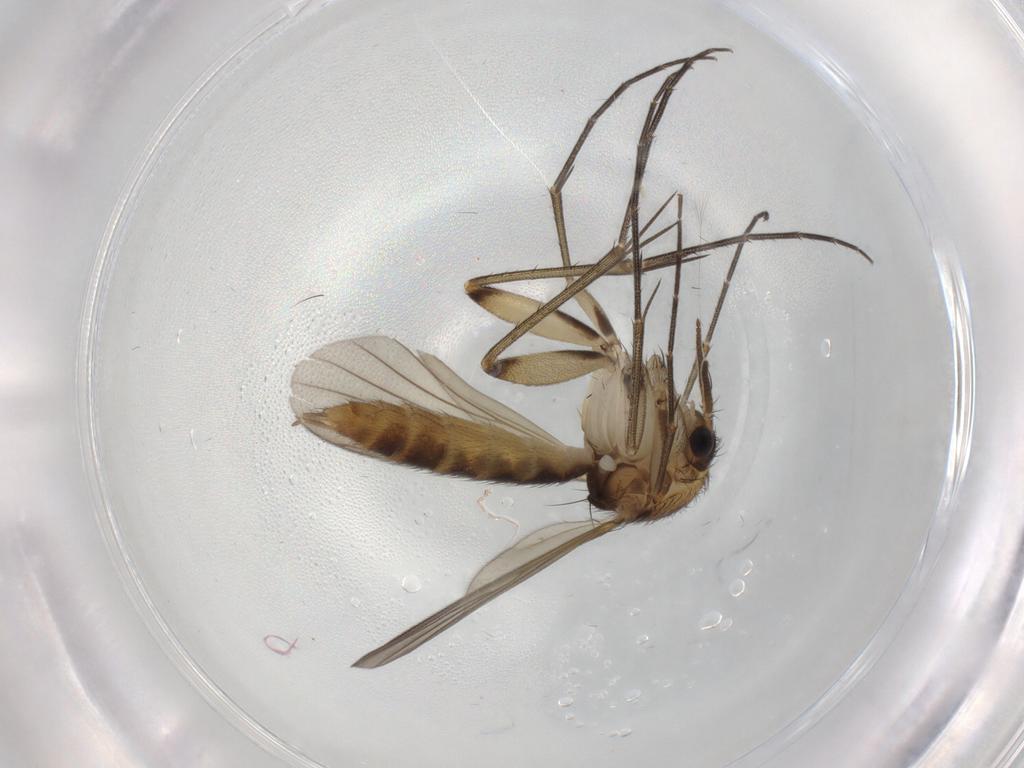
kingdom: Animalia
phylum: Arthropoda
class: Insecta
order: Diptera
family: Mycetophilidae
